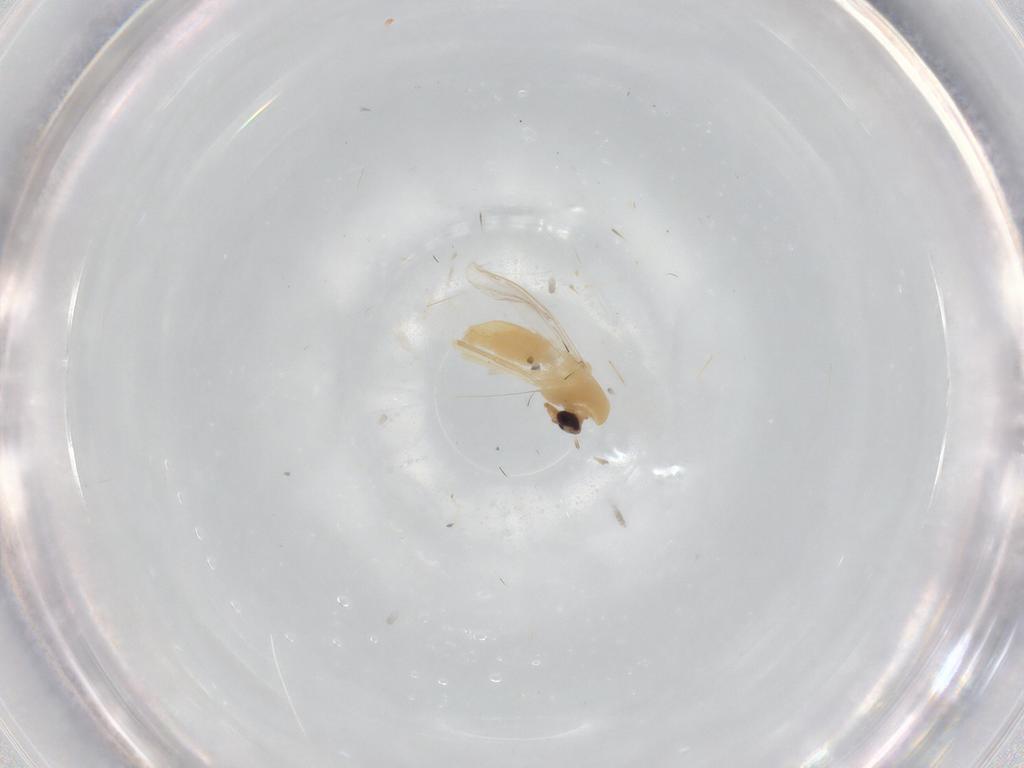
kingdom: Animalia
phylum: Arthropoda
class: Insecta
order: Diptera
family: Chironomidae
